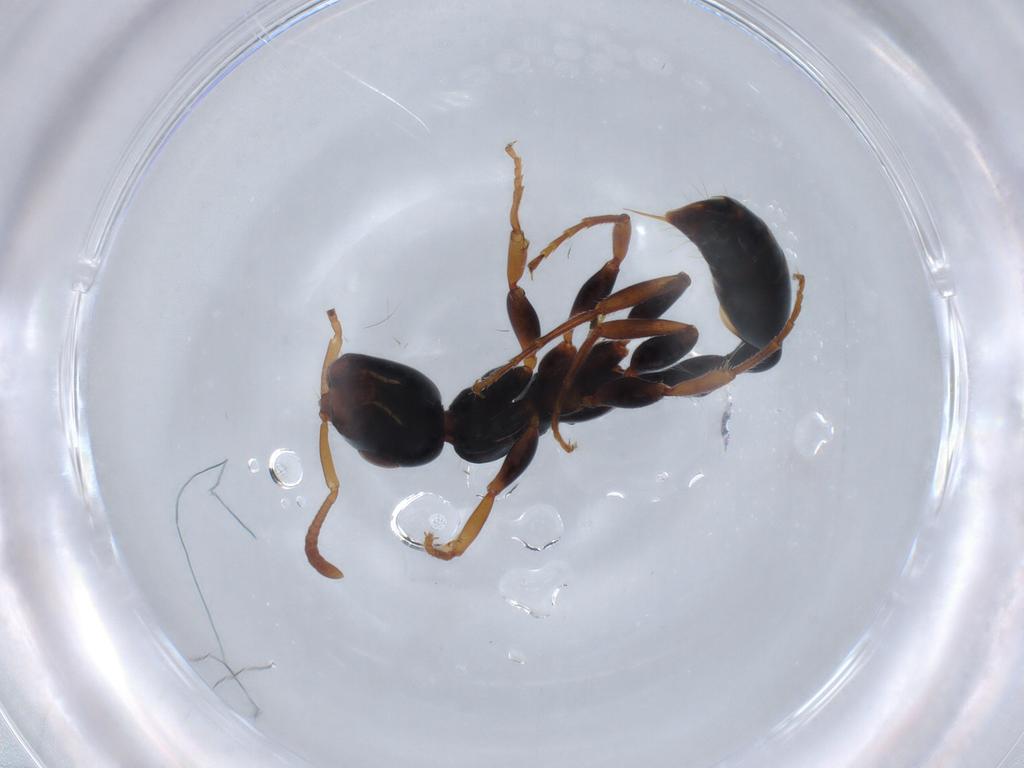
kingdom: Animalia
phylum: Arthropoda
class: Insecta
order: Hymenoptera
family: Formicidae
